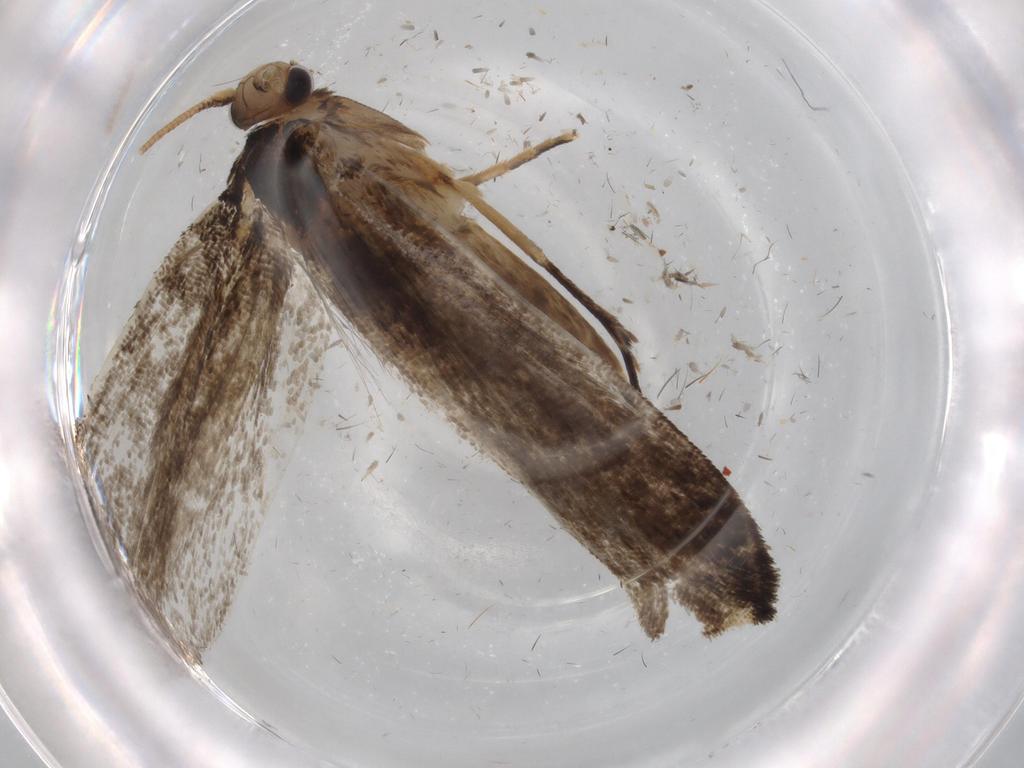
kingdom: Animalia
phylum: Arthropoda
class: Insecta
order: Lepidoptera
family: Tineidae
